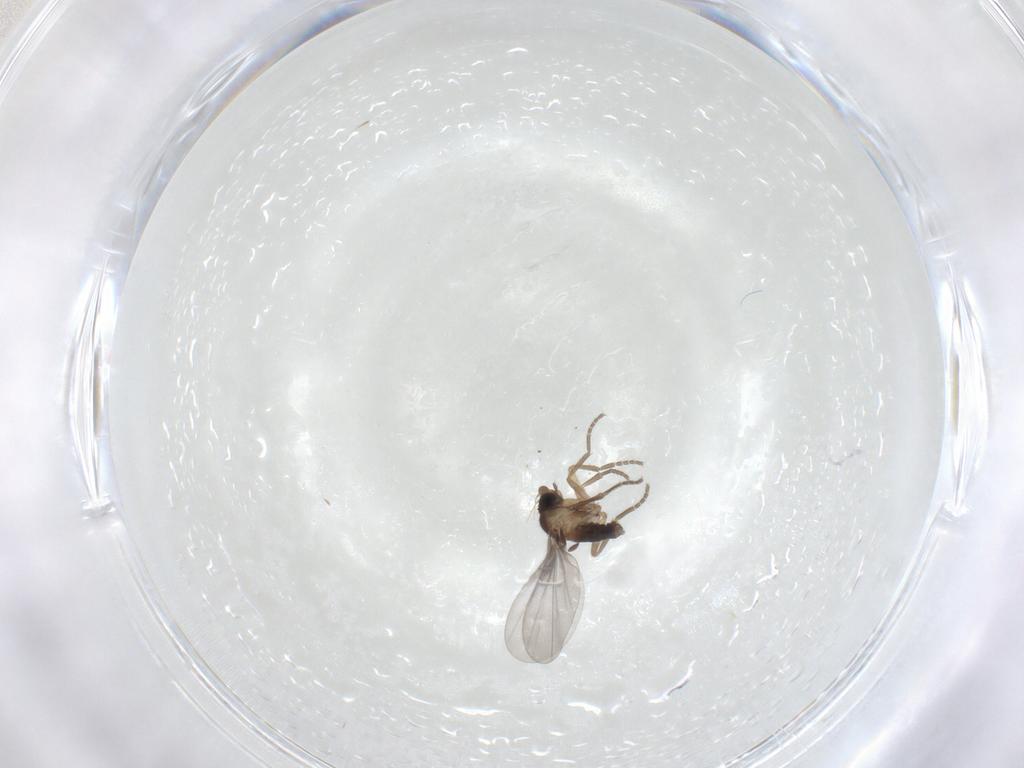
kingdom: Animalia
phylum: Arthropoda
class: Insecta
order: Diptera
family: Phoridae
